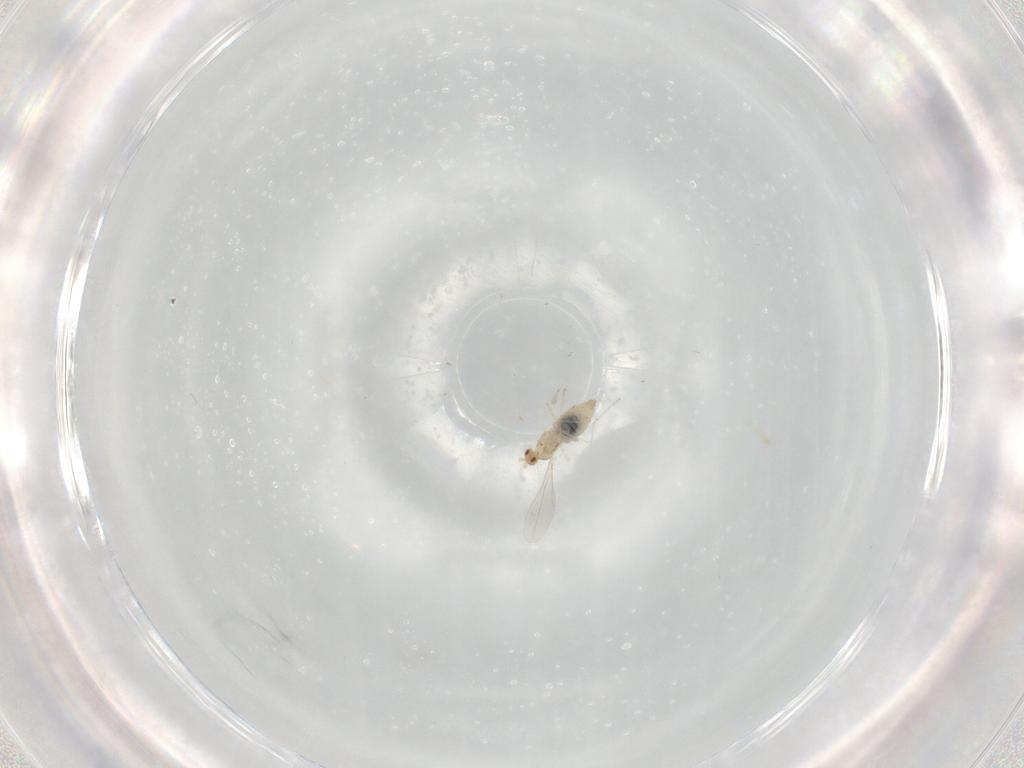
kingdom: Animalia
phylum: Arthropoda
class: Insecta
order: Diptera
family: Cecidomyiidae
